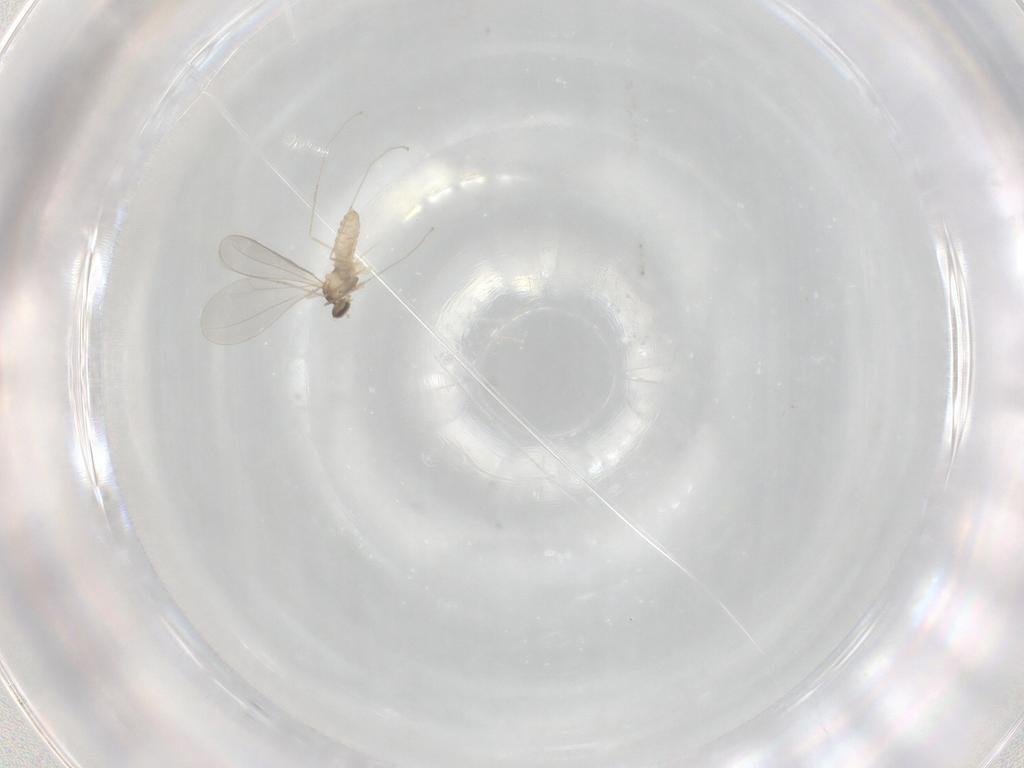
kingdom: Animalia
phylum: Arthropoda
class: Insecta
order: Diptera
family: Cecidomyiidae
